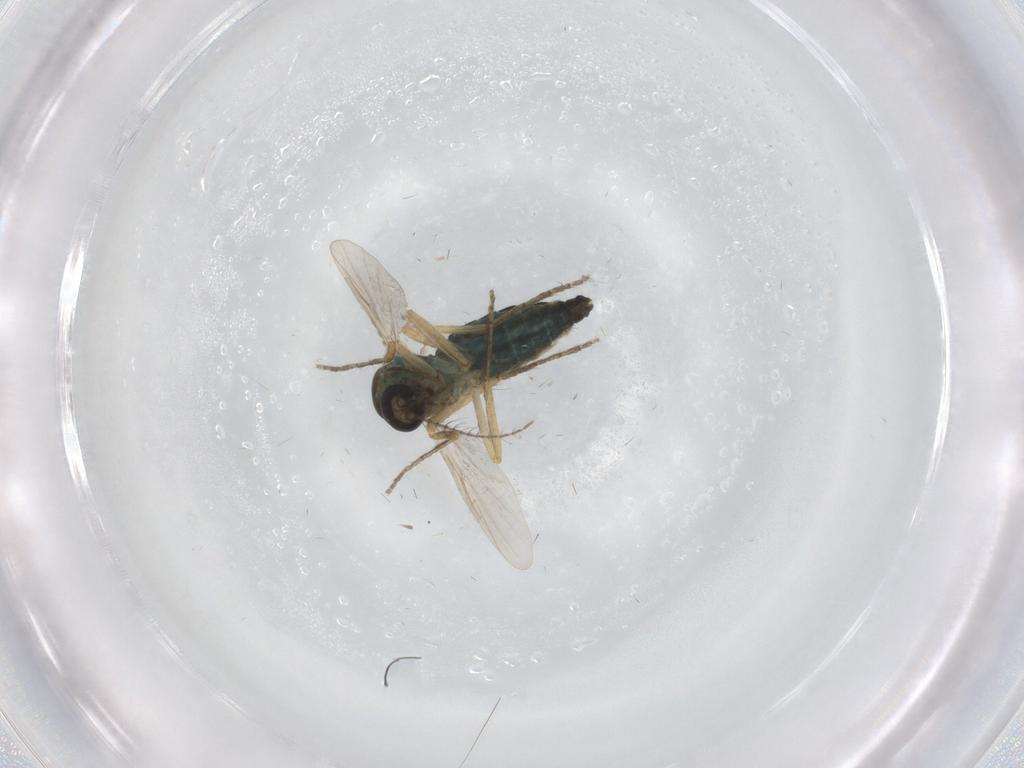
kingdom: Animalia
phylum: Arthropoda
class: Insecta
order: Diptera
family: Ceratopogonidae
